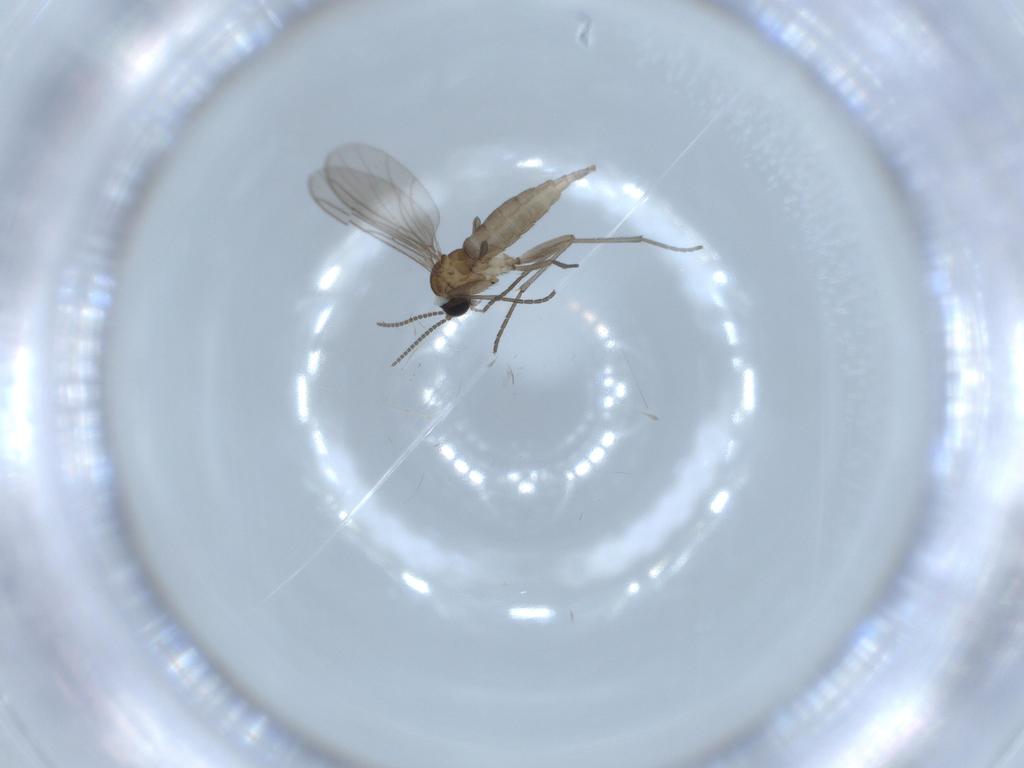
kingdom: Animalia
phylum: Arthropoda
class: Insecta
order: Diptera
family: Sciaridae
